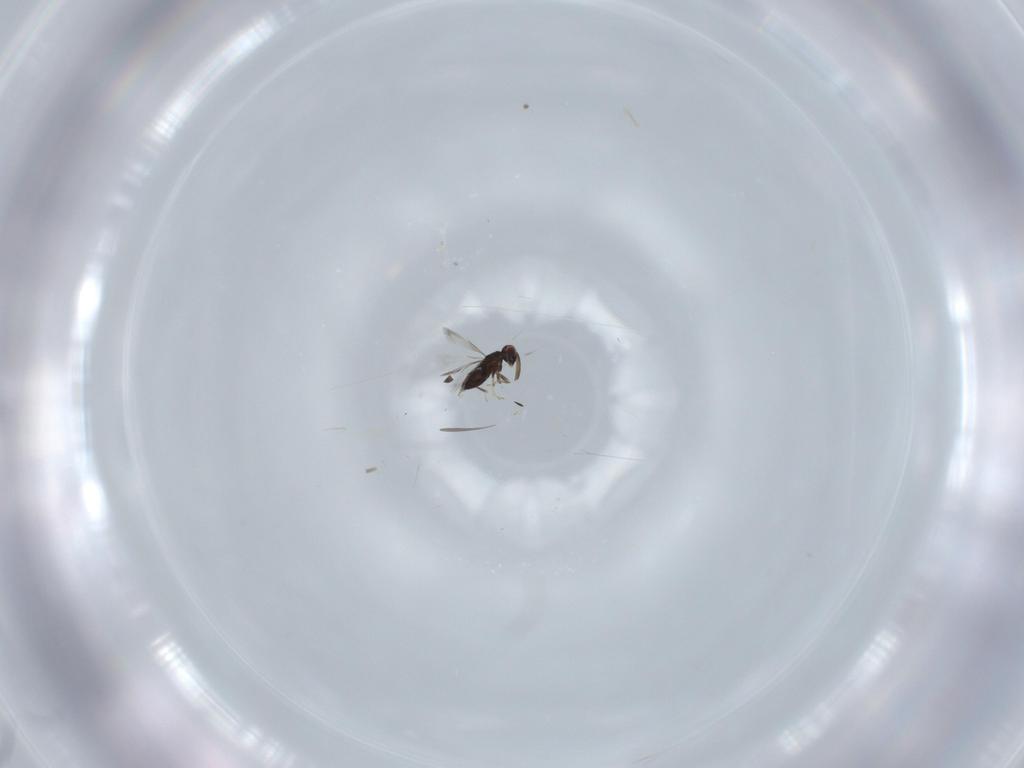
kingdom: Animalia
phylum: Arthropoda
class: Insecta
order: Hymenoptera
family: Signiphoridae
